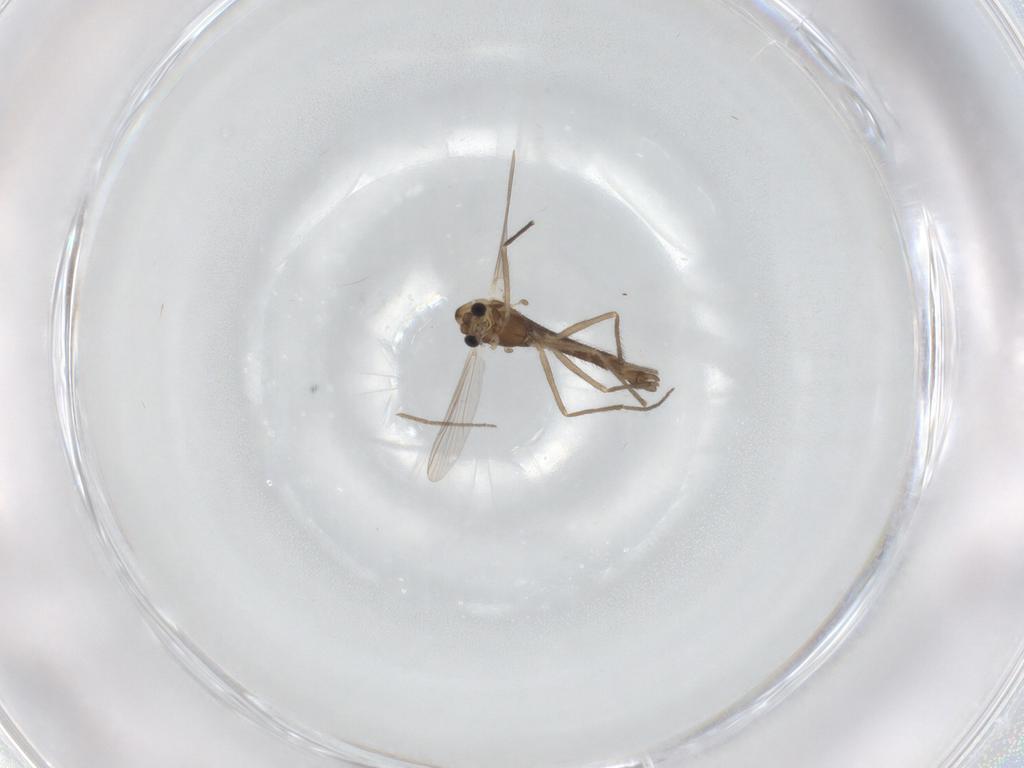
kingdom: Animalia
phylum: Arthropoda
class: Insecta
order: Diptera
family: Chironomidae
